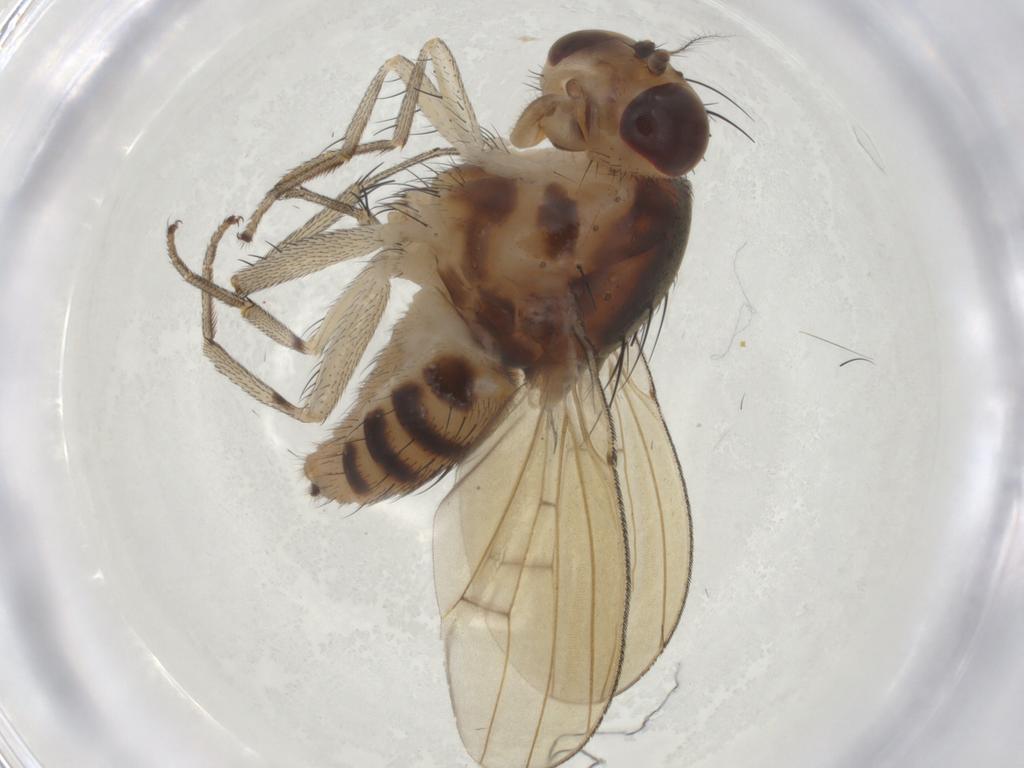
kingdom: Animalia
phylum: Arthropoda
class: Insecta
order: Diptera
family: Lauxaniidae
